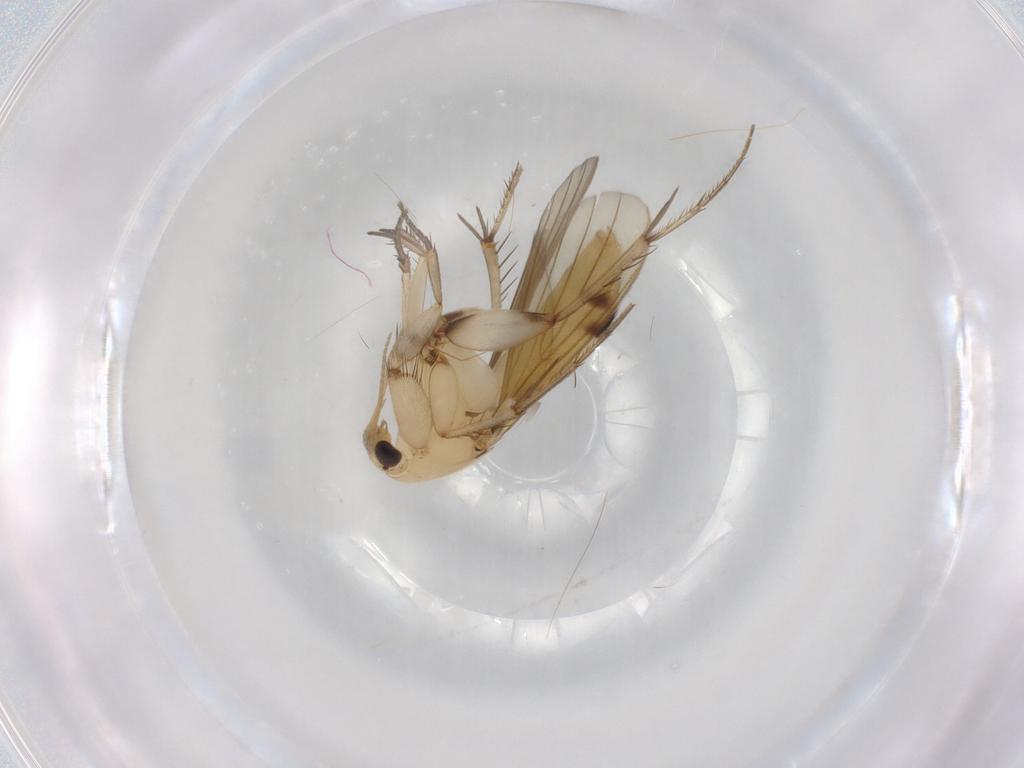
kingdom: Animalia
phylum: Arthropoda
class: Insecta
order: Diptera
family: Mycetophilidae
